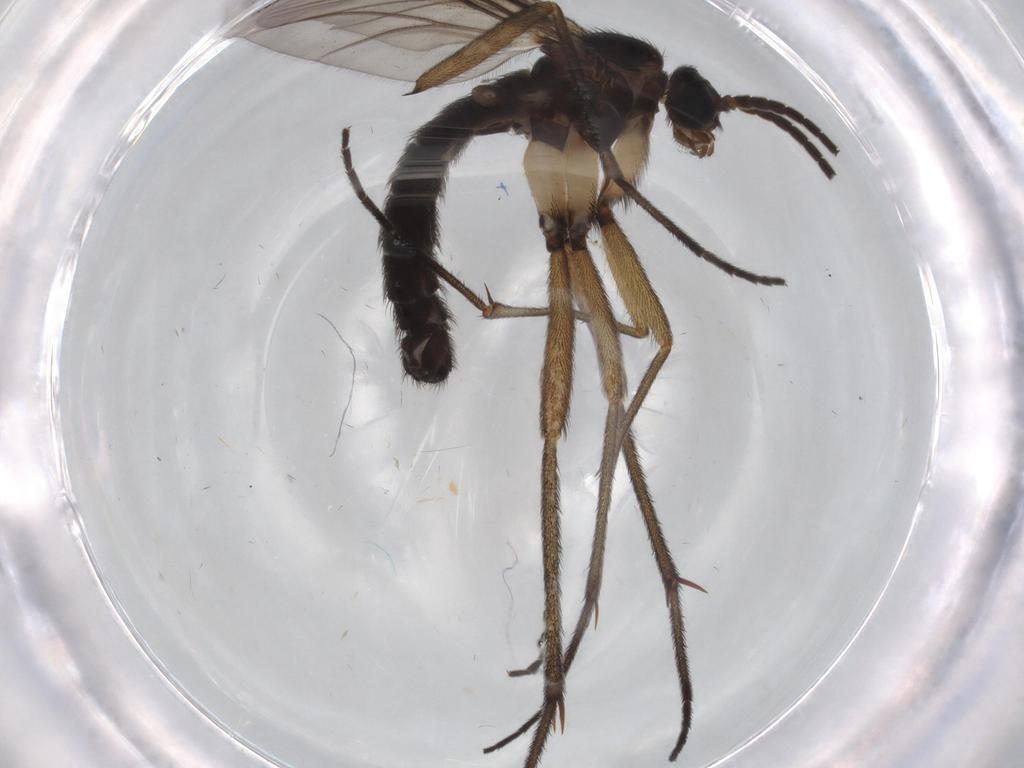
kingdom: Animalia
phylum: Arthropoda
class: Insecta
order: Diptera
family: Sciaridae
